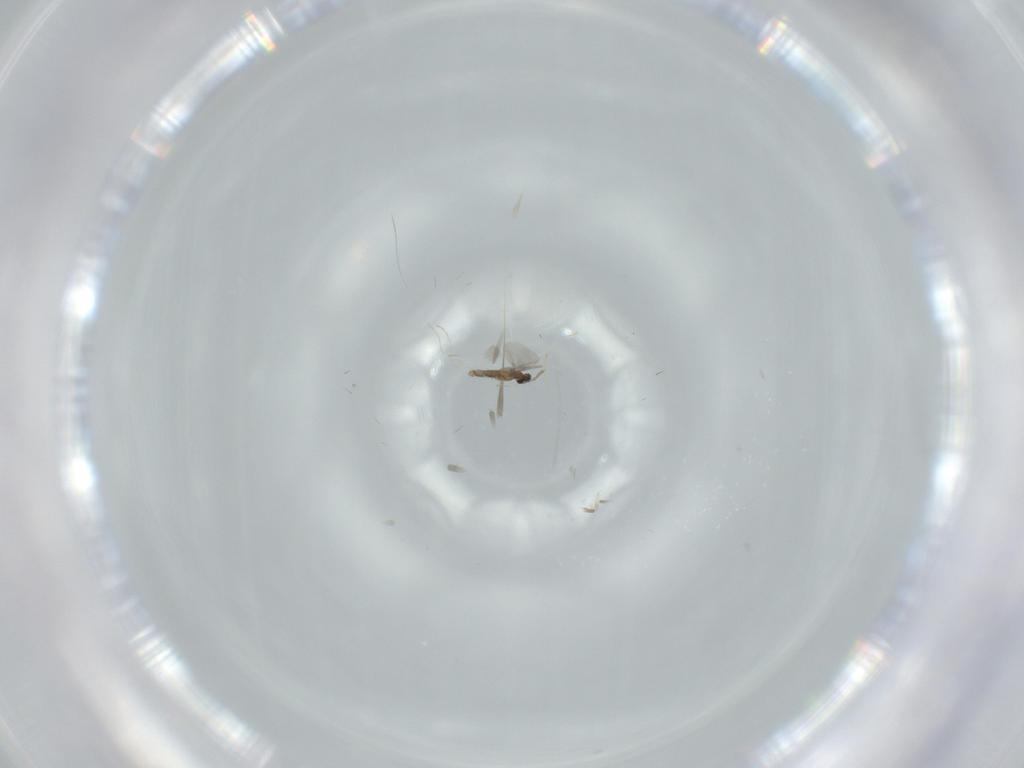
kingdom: Animalia
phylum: Arthropoda
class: Insecta
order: Diptera
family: Cecidomyiidae
